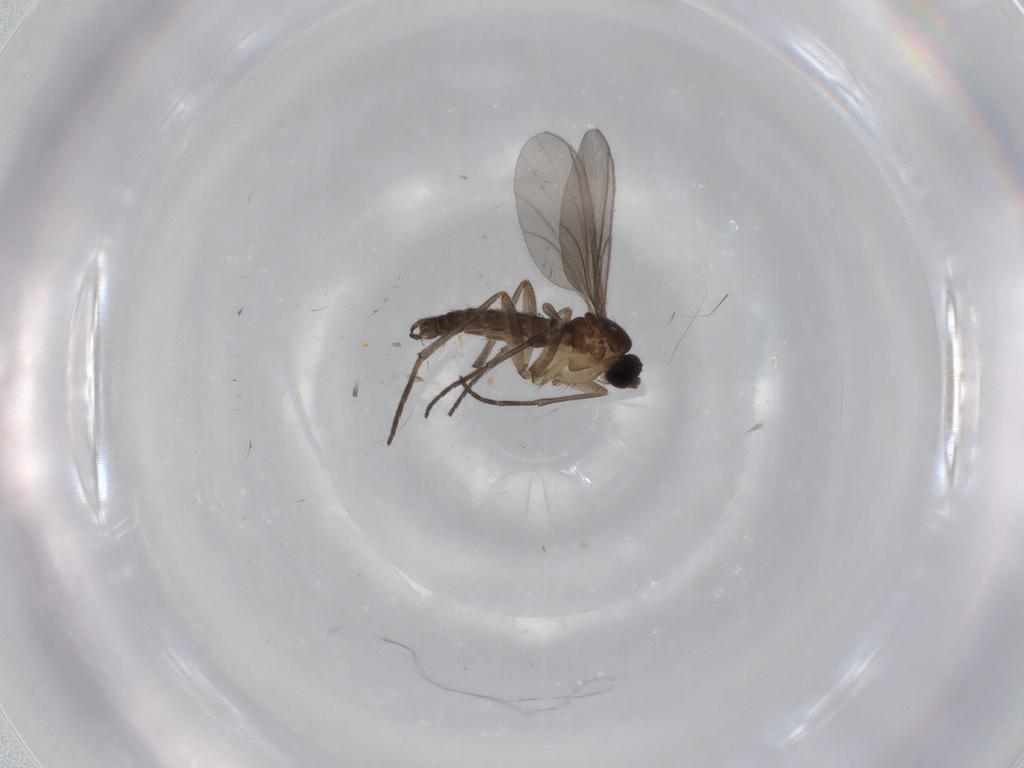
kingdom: Animalia
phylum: Arthropoda
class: Insecta
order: Diptera
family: Sciaridae
